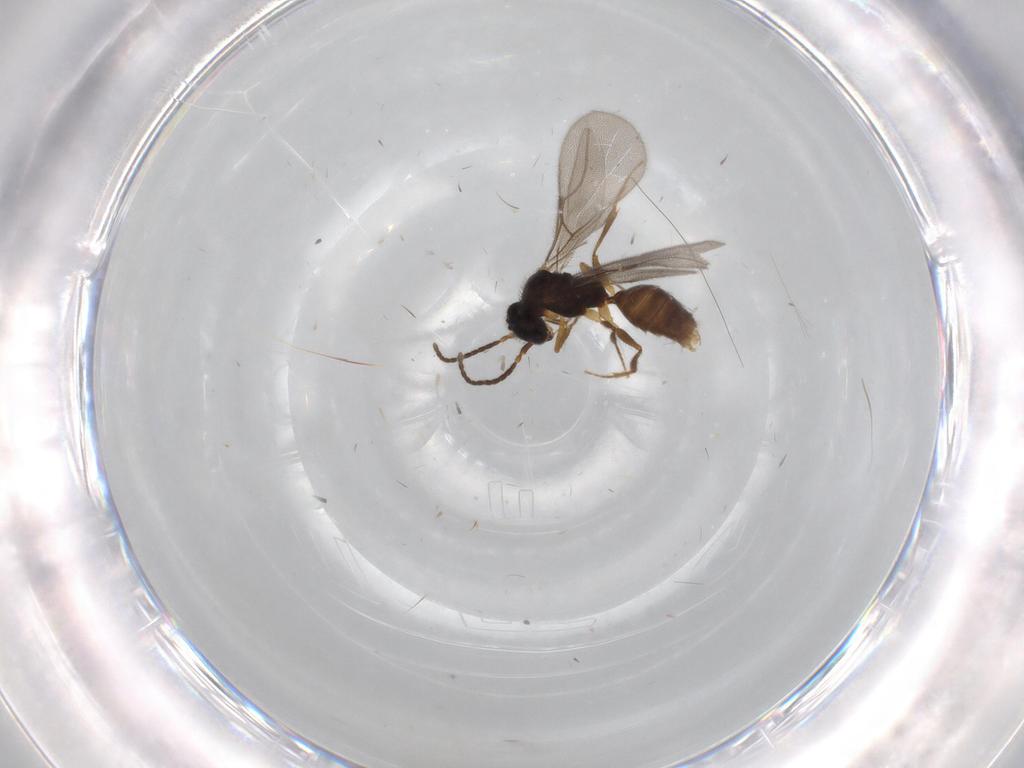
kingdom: Animalia
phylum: Arthropoda
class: Insecta
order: Hymenoptera
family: Bethylidae
